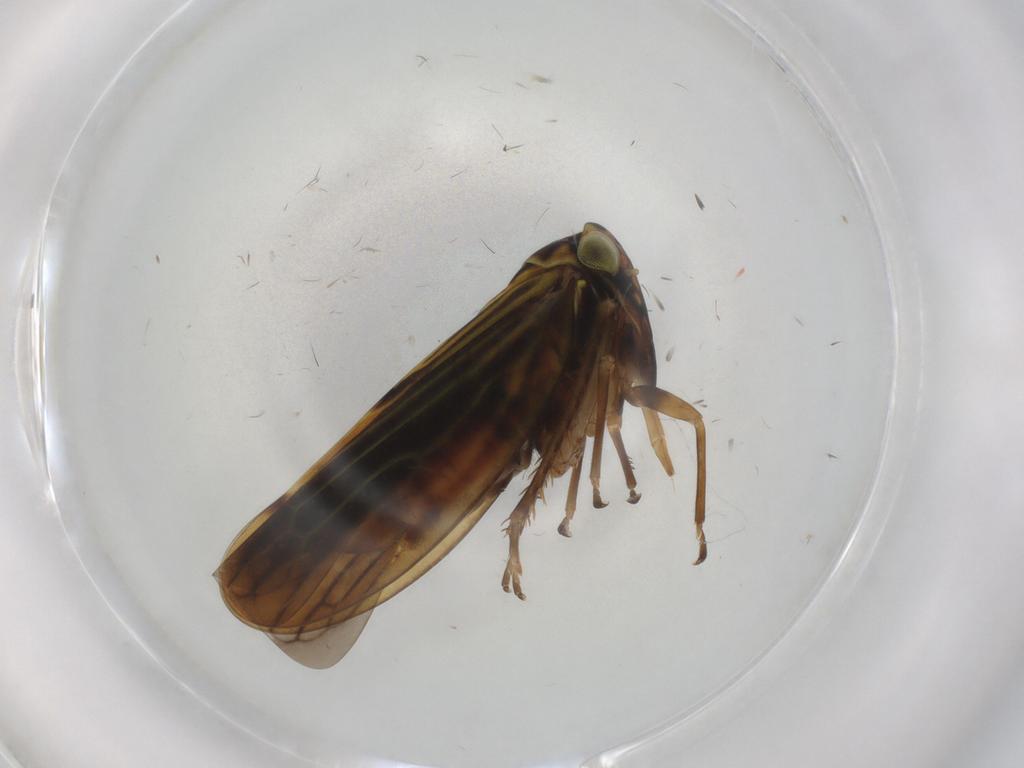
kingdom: Animalia
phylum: Arthropoda
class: Insecta
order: Hemiptera
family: Cicadellidae
